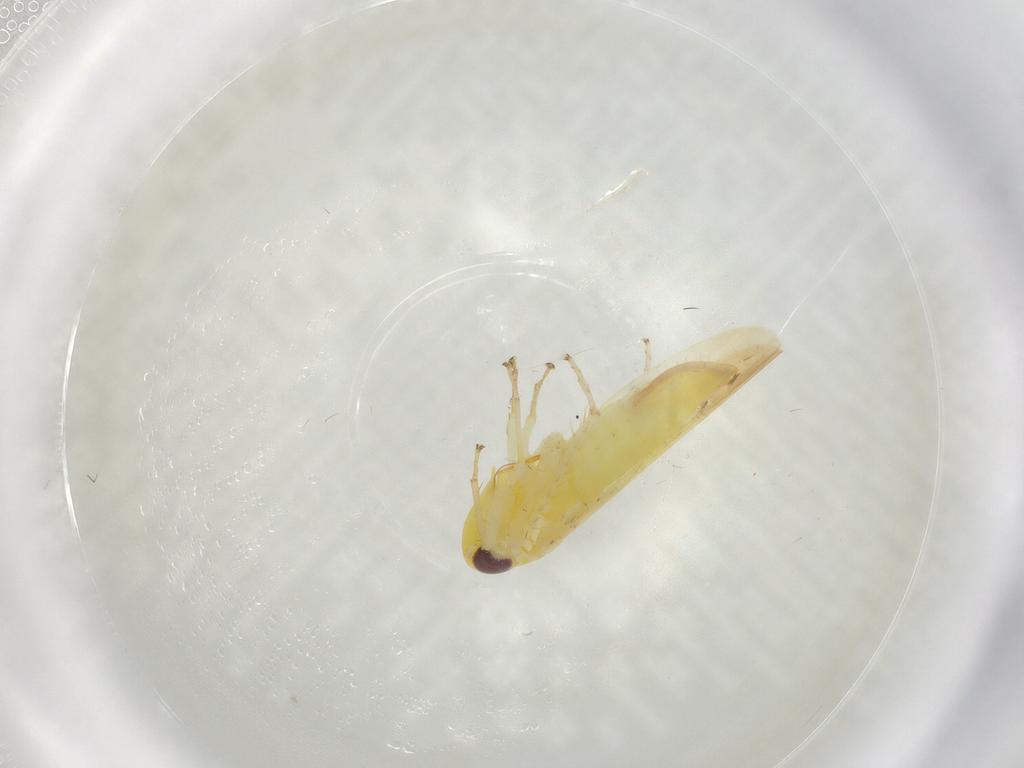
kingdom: Animalia
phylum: Arthropoda
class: Insecta
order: Hemiptera
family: Cicadellidae
